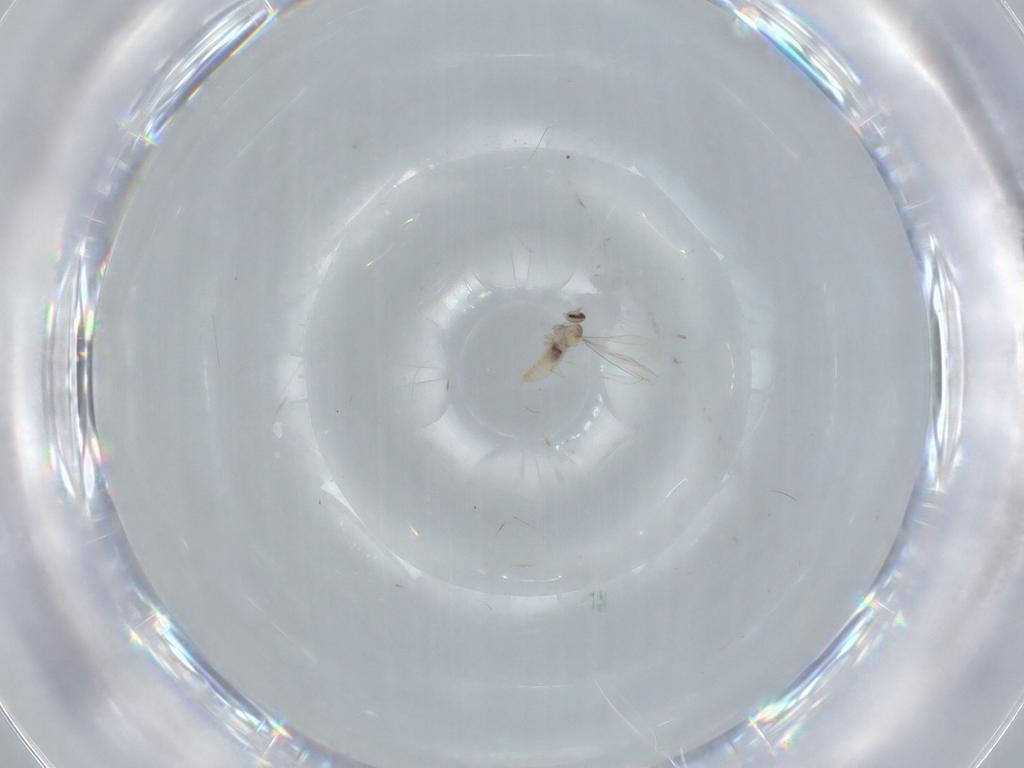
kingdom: Animalia
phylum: Arthropoda
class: Insecta
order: Diptera
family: Cecidomyiidae
